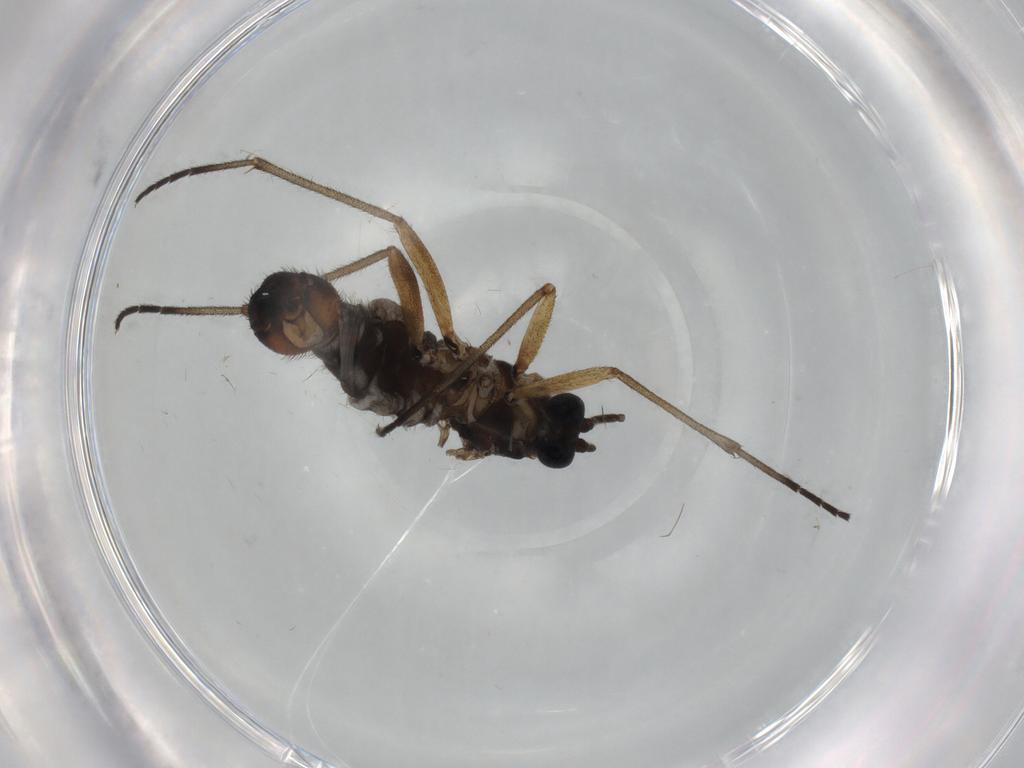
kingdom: Animalia
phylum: Arthropoda
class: Insecta
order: Diptera
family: Sciaridae
